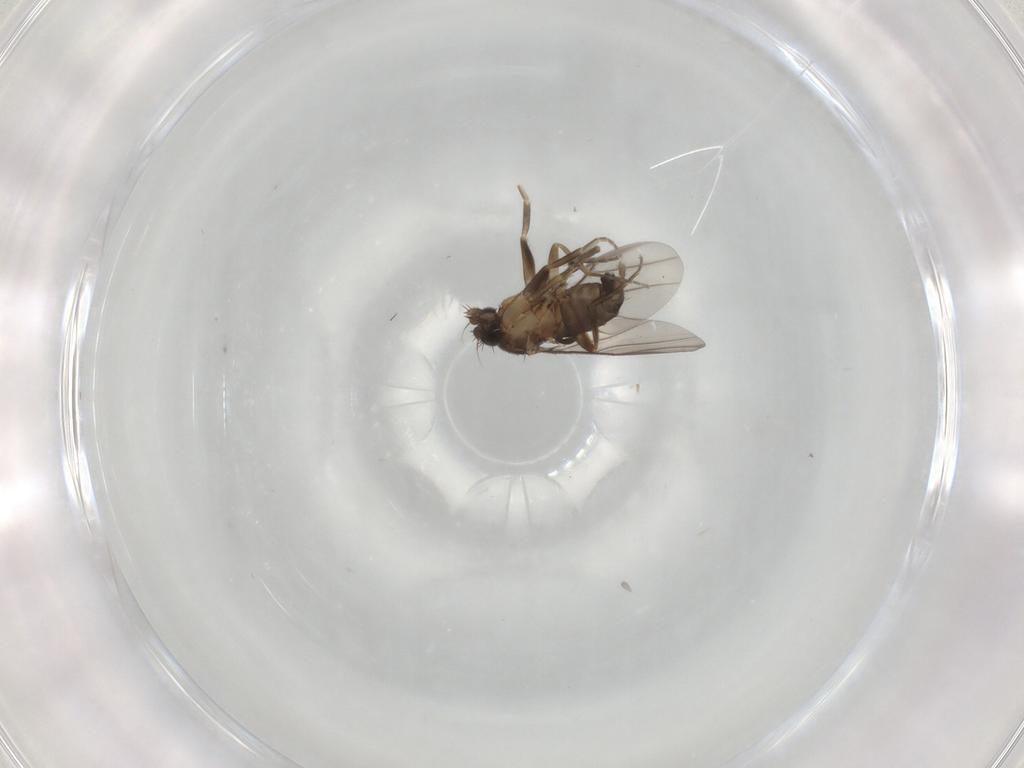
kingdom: Animalia
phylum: Arthropoda
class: Insecta
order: Diptera
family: Phoridae
